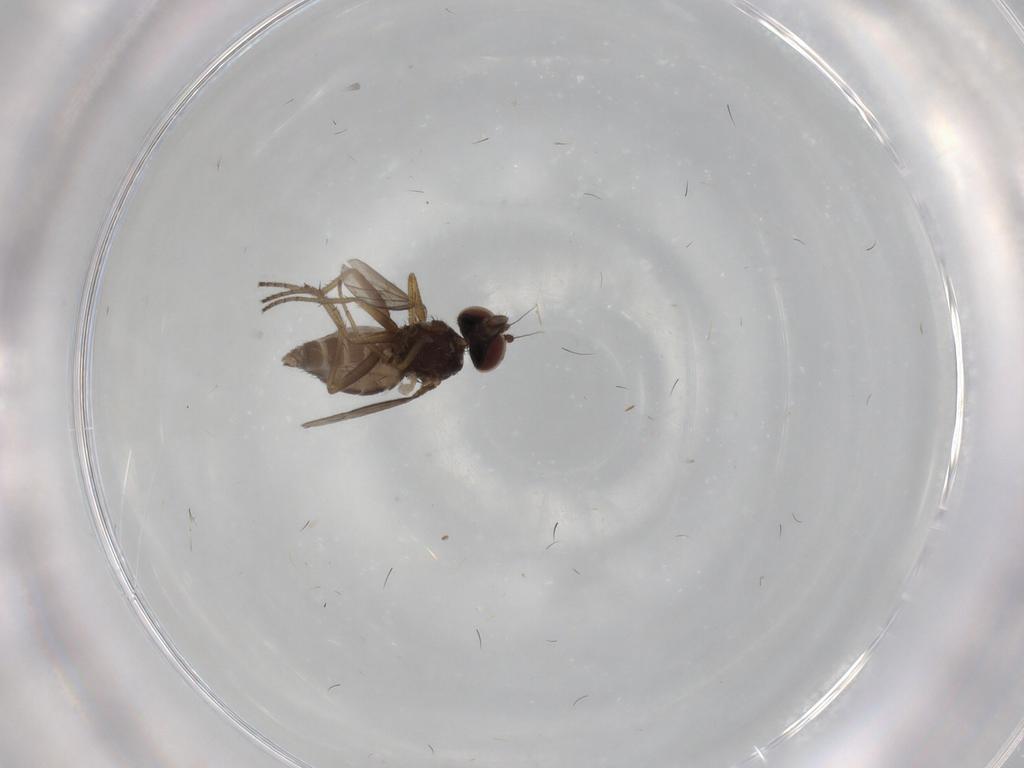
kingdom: Animalia
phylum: Arthropoda
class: Insecta
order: Diptera
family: Dolichopodidae
